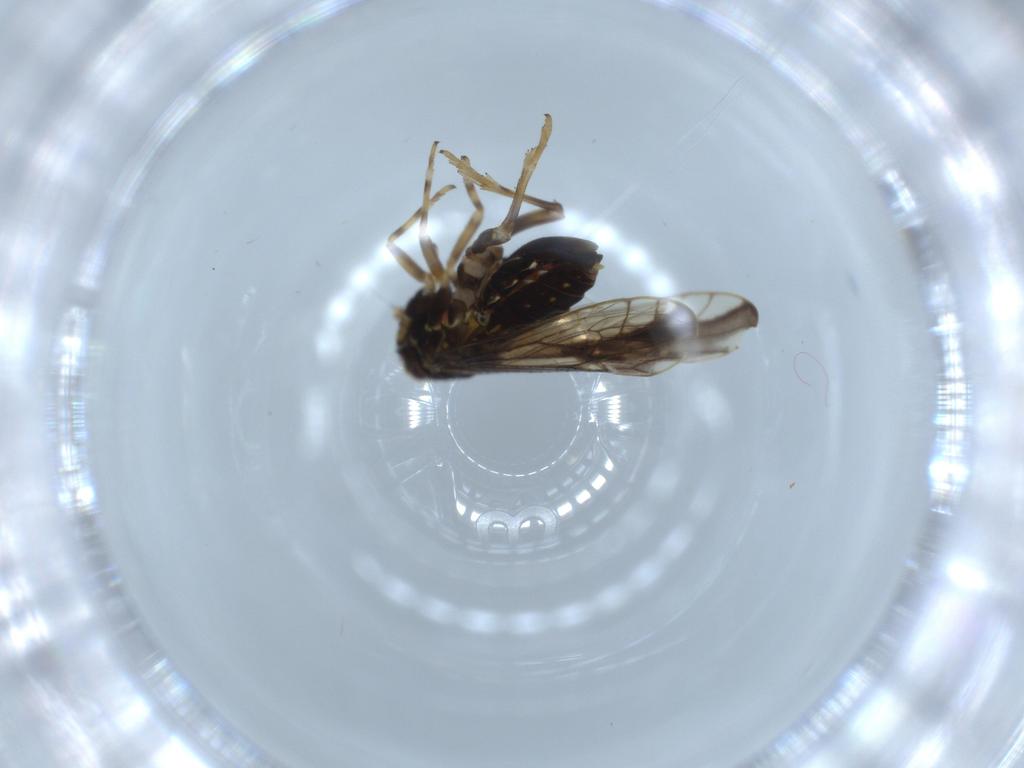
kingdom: Animalia
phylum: Arthropoda
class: Insecta
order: Hemiptera
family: Delphacidae
